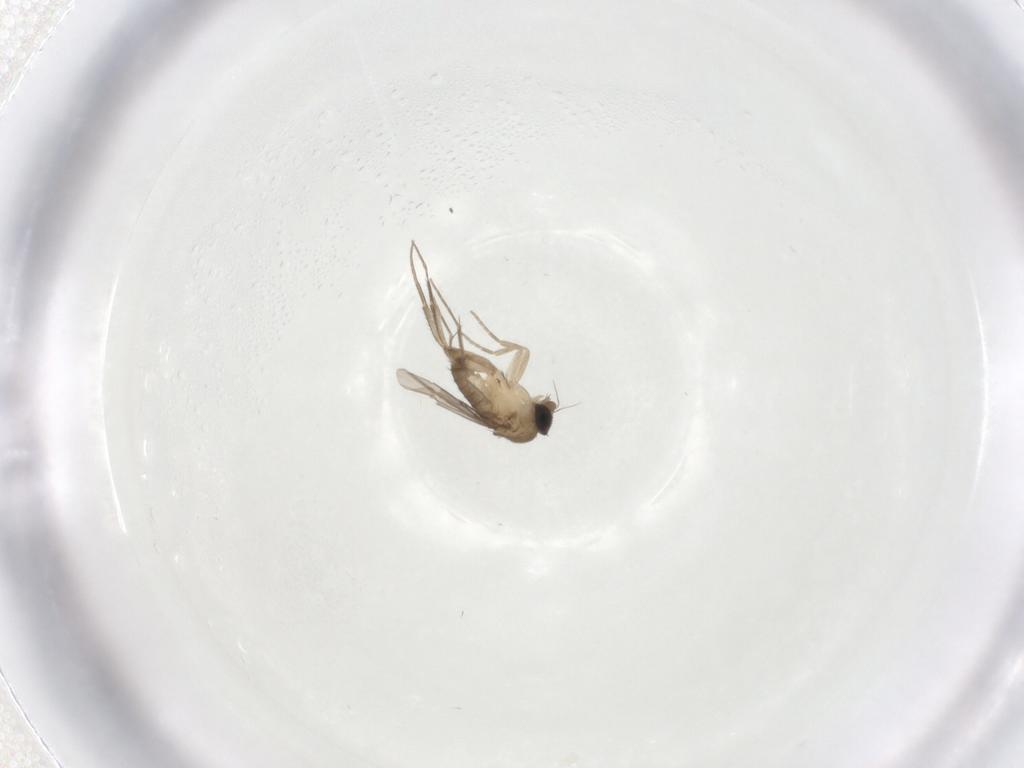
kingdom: Animalia
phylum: Arthropoda
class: Insecta
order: Diptera
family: Phoridae
